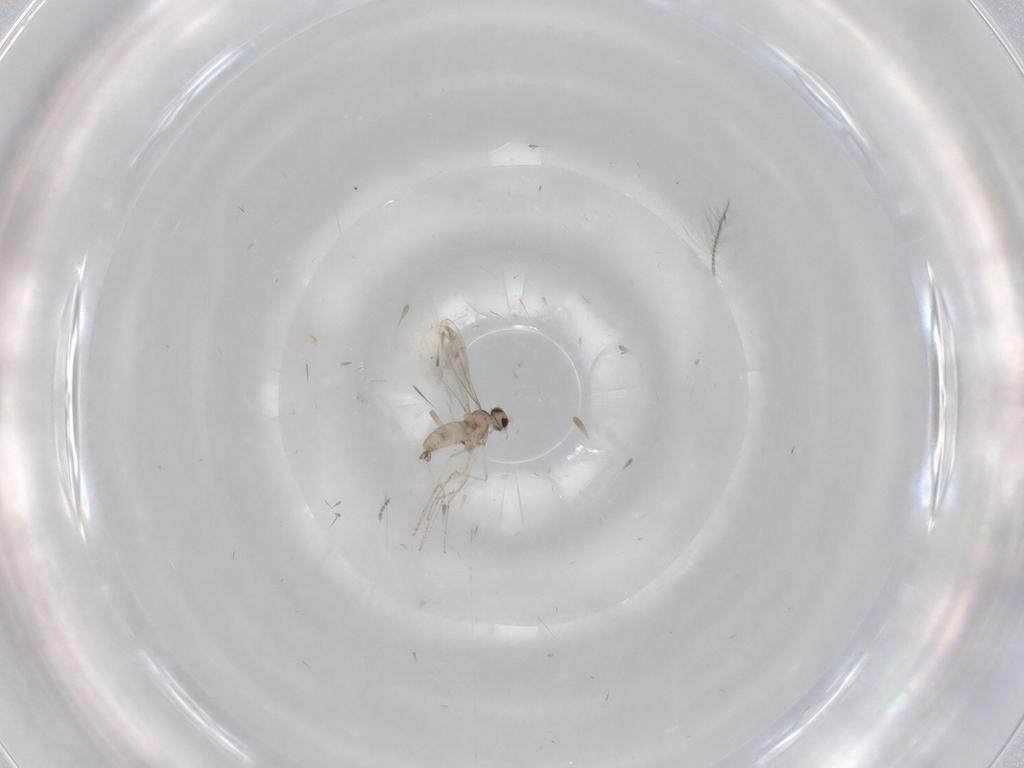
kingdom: Animalia
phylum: Arthropoda
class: Insecta
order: Diptera
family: Cecidomyiidae
